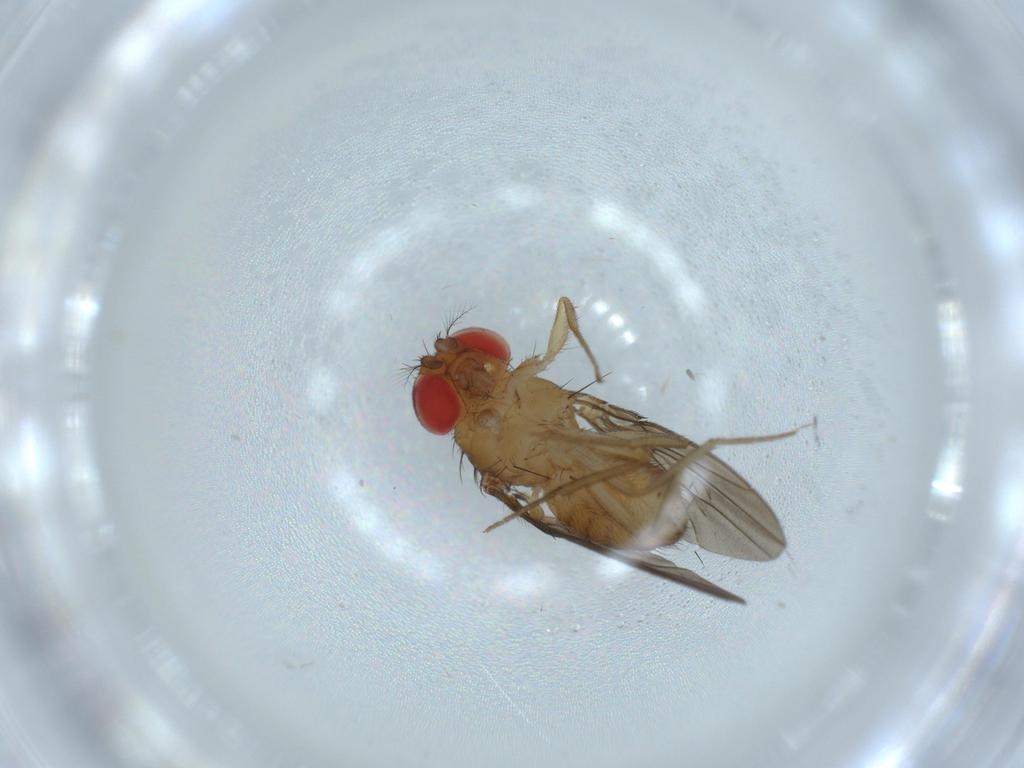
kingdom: Animalia
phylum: Arthropoda
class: Insecta
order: Diptera
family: Drosophilidae
